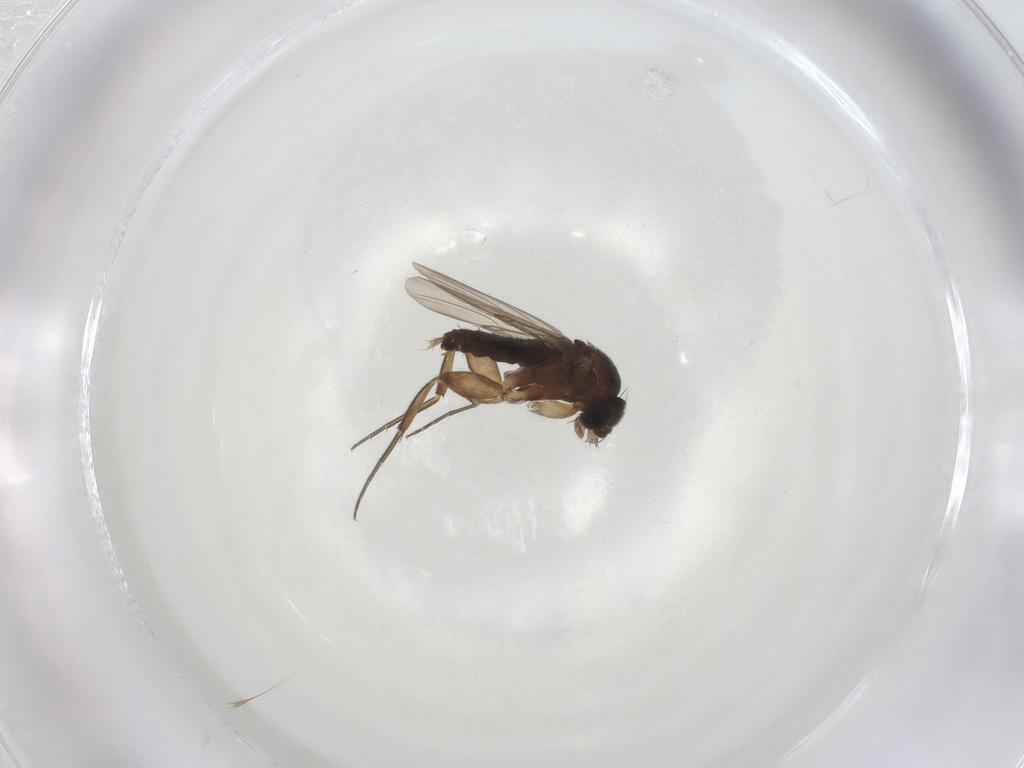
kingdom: Animalia
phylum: Arthropoda
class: Insecta
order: Diptera
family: Phoridae
